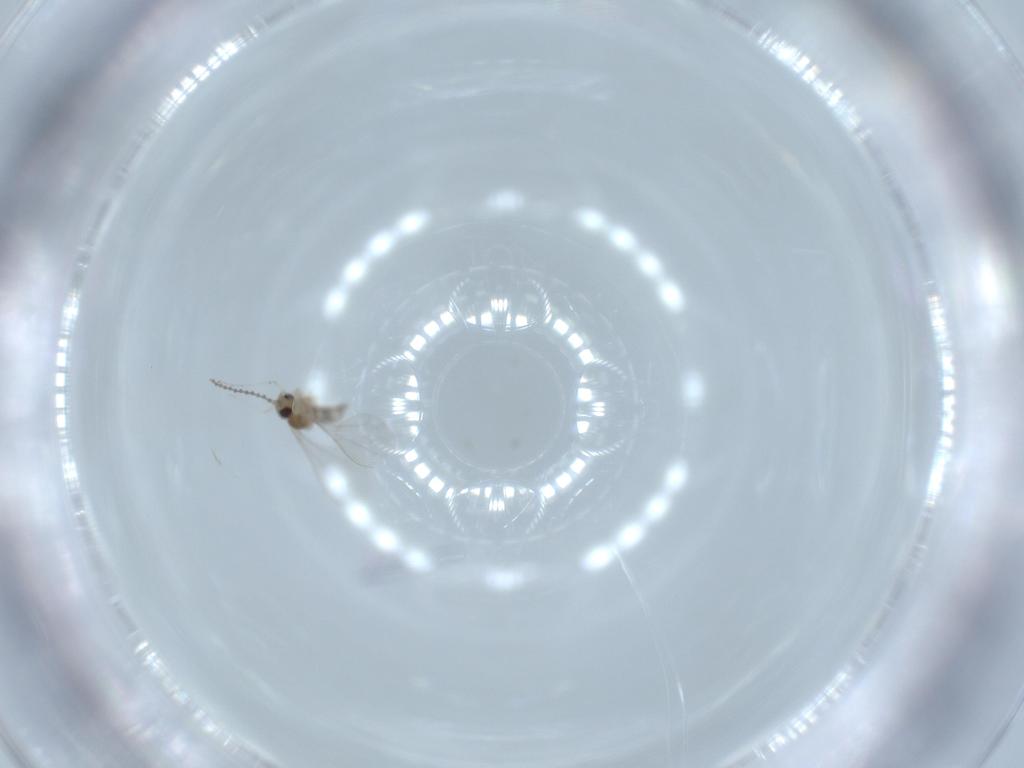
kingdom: Animalia
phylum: Arthropoda
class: Insecta
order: Diptera
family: Cecidomyiidae
